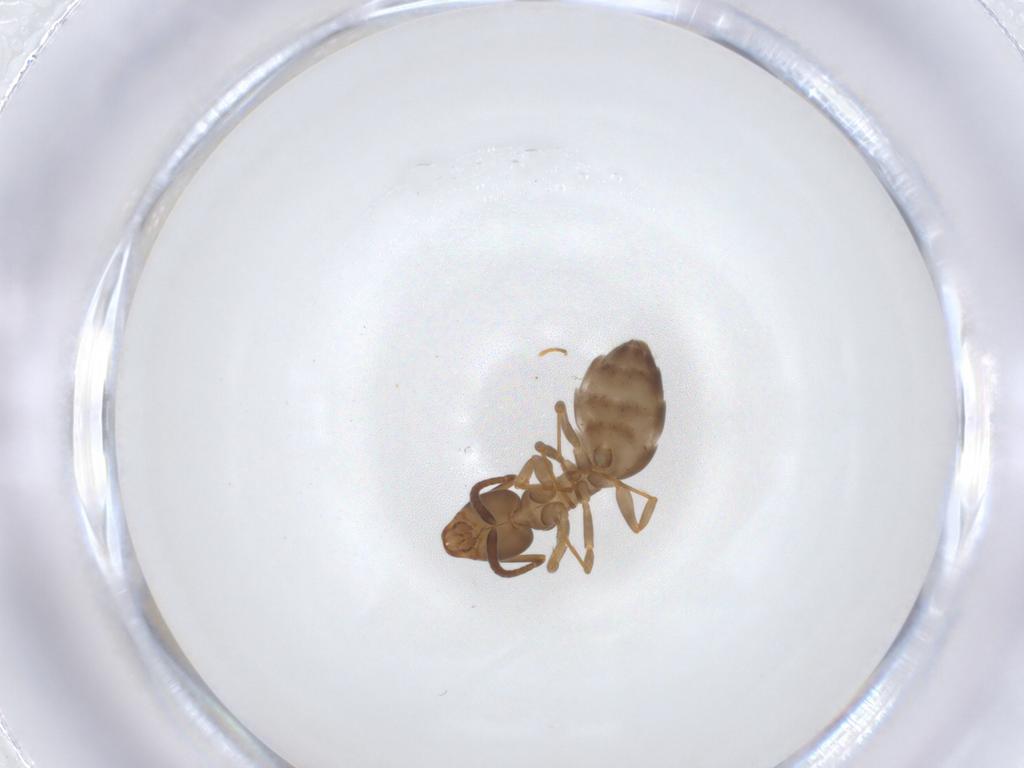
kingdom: Animalia
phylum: Arthropoda
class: Insecta
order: Hymenoptera
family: Formicidae
